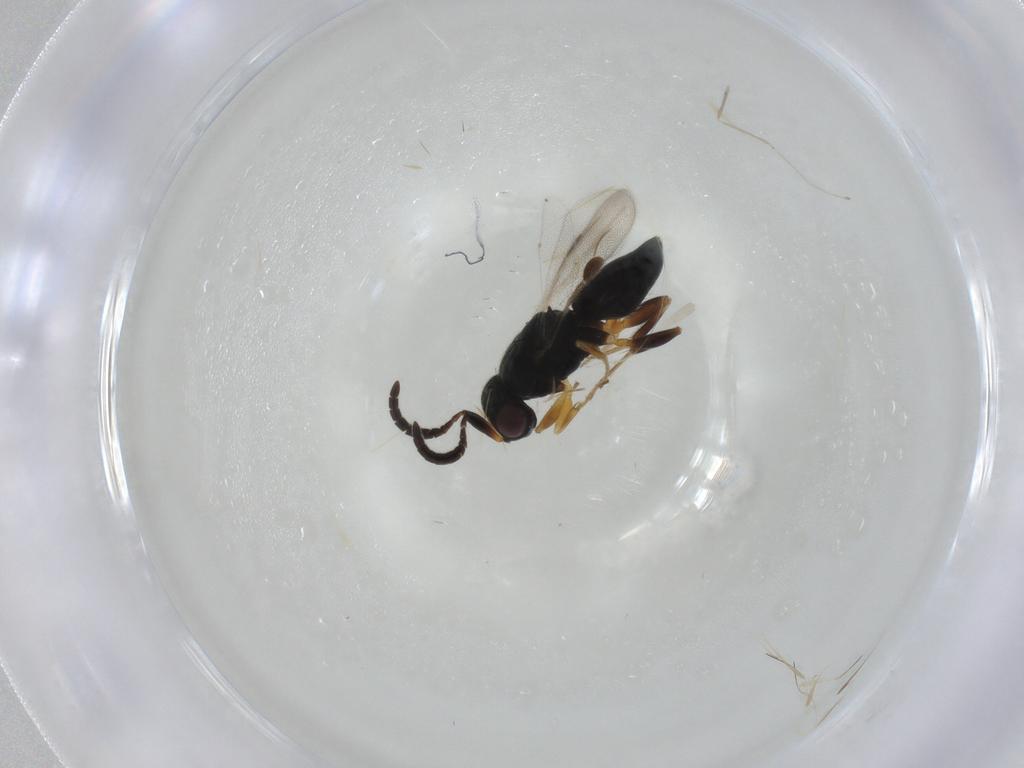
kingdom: Animalia
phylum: Arthropoda
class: Insecta
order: Diptera
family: Cecidomyiidae
